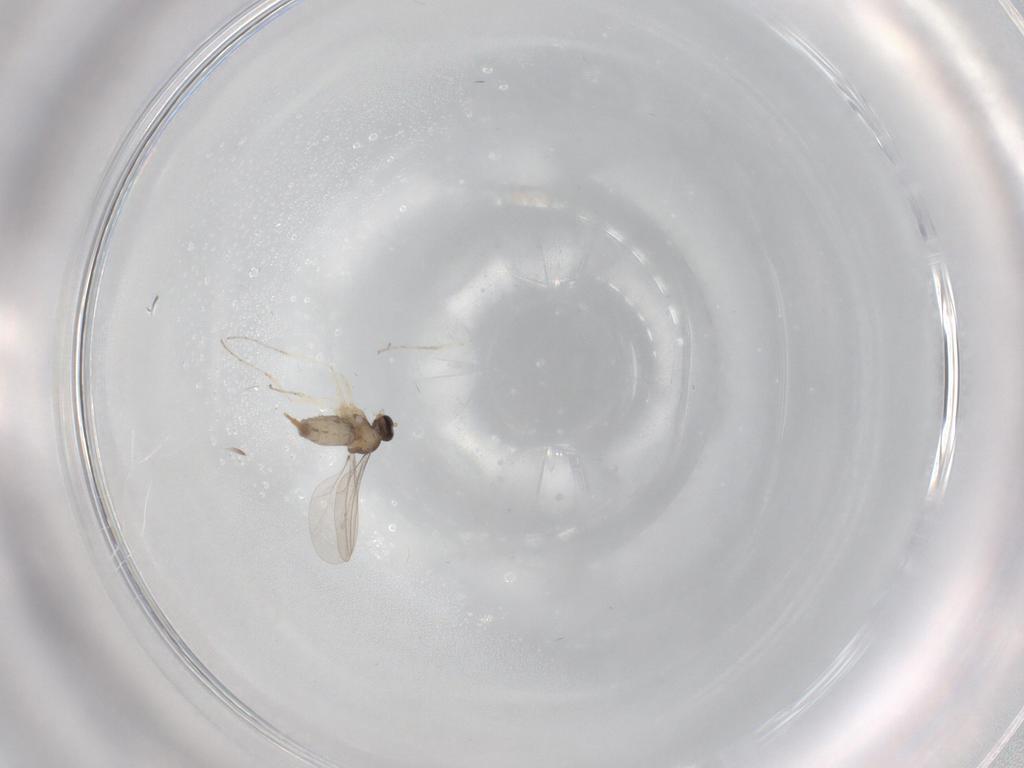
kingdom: Animalia
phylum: Arthropoda
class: Insecta
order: Diptera
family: Cecidomyiidae
